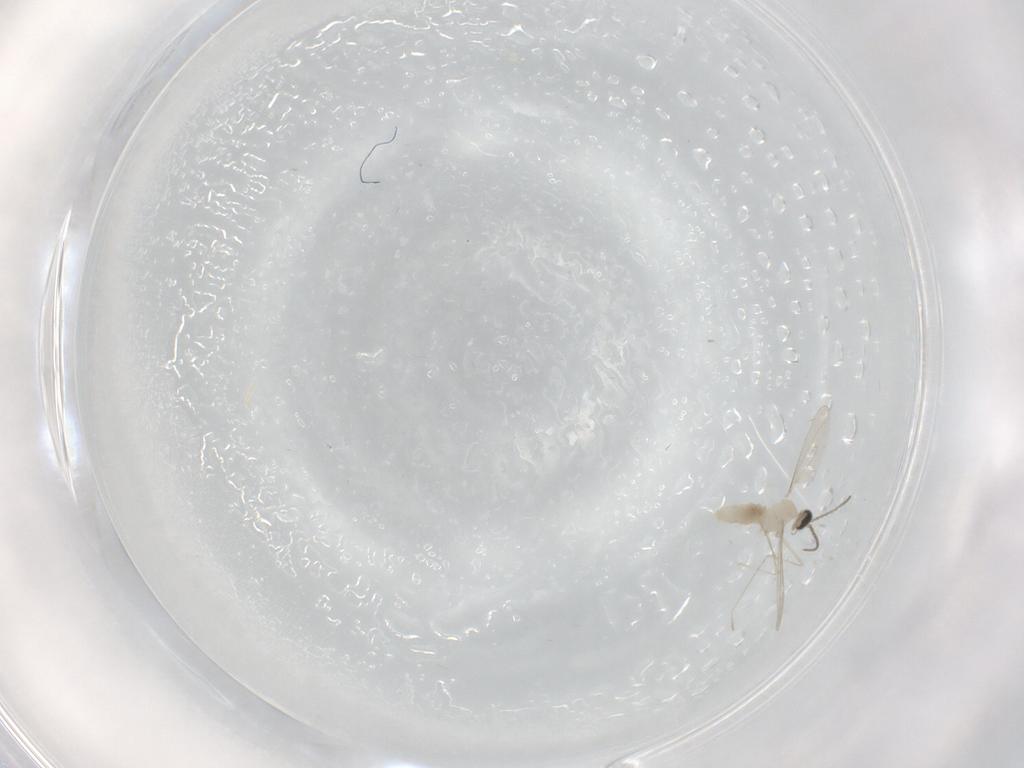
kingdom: Animalia
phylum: Arthropoda
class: Insecta
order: Diptera
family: Cecidomyiidae
